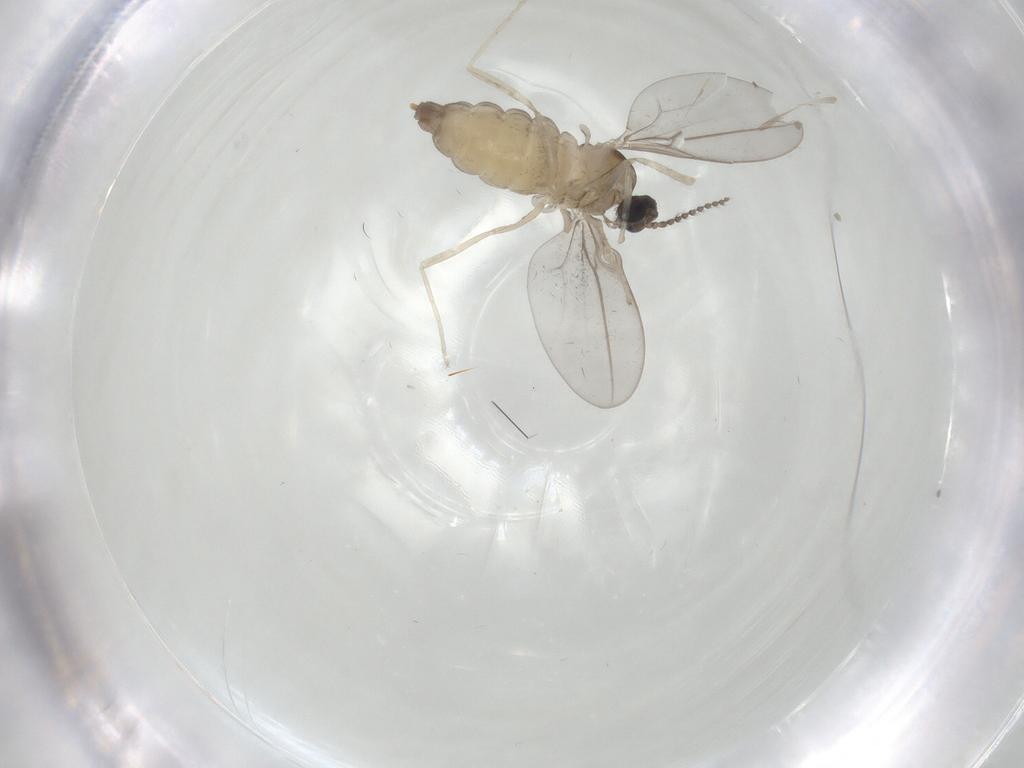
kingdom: Animalia
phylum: Arthropoda
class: Insecta
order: Diptera
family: Cecidomyiidae
